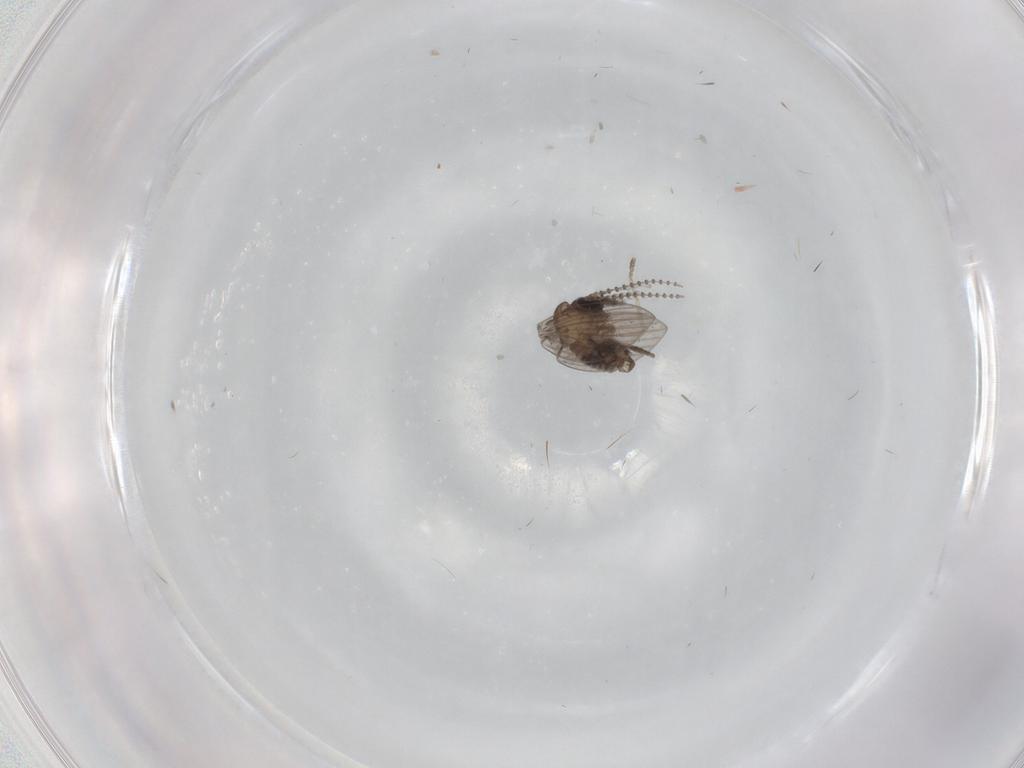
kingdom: Animalia
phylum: Arthropoda
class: Insecta
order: Diptera
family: Psychodidae
